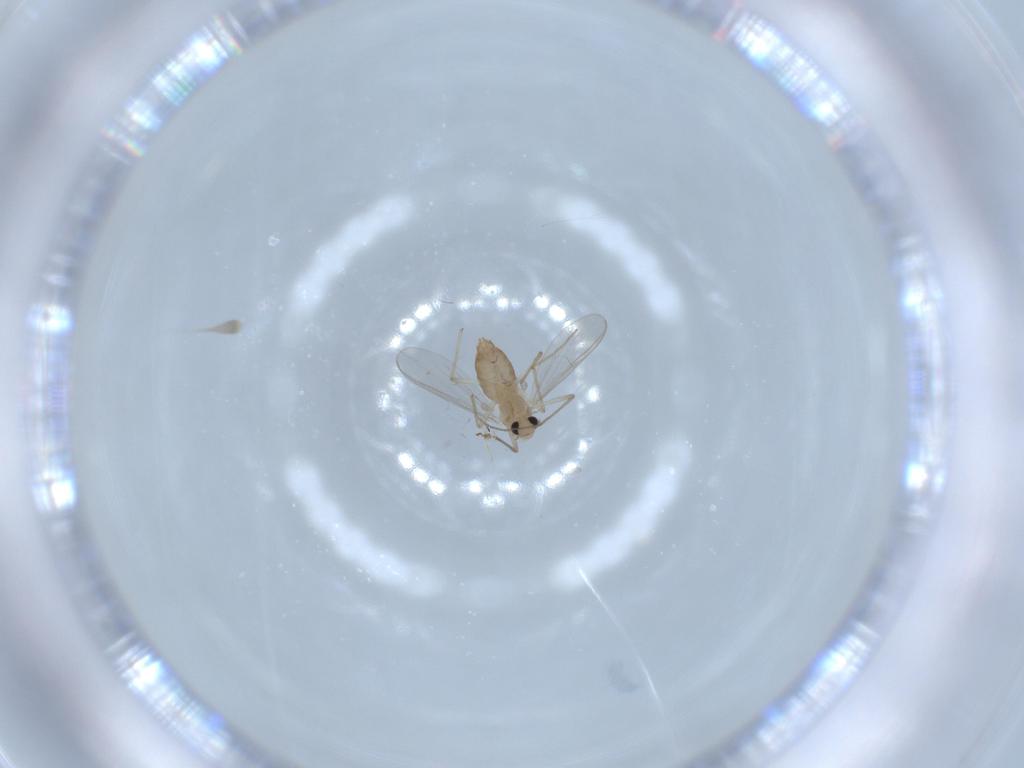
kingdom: Animalia
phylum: Arthropoda
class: Insecta
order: Diptera
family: Chironomidae
